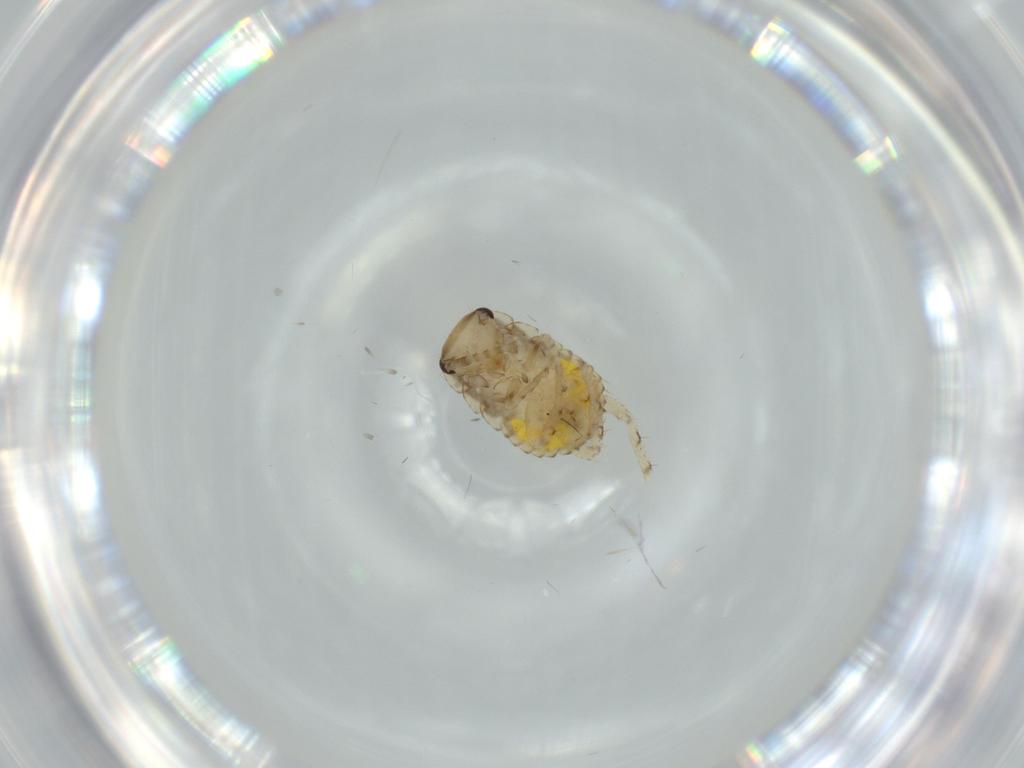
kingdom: Animalia
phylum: Arthropoda
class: Insecta
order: Blattodea
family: Ectobiidae
